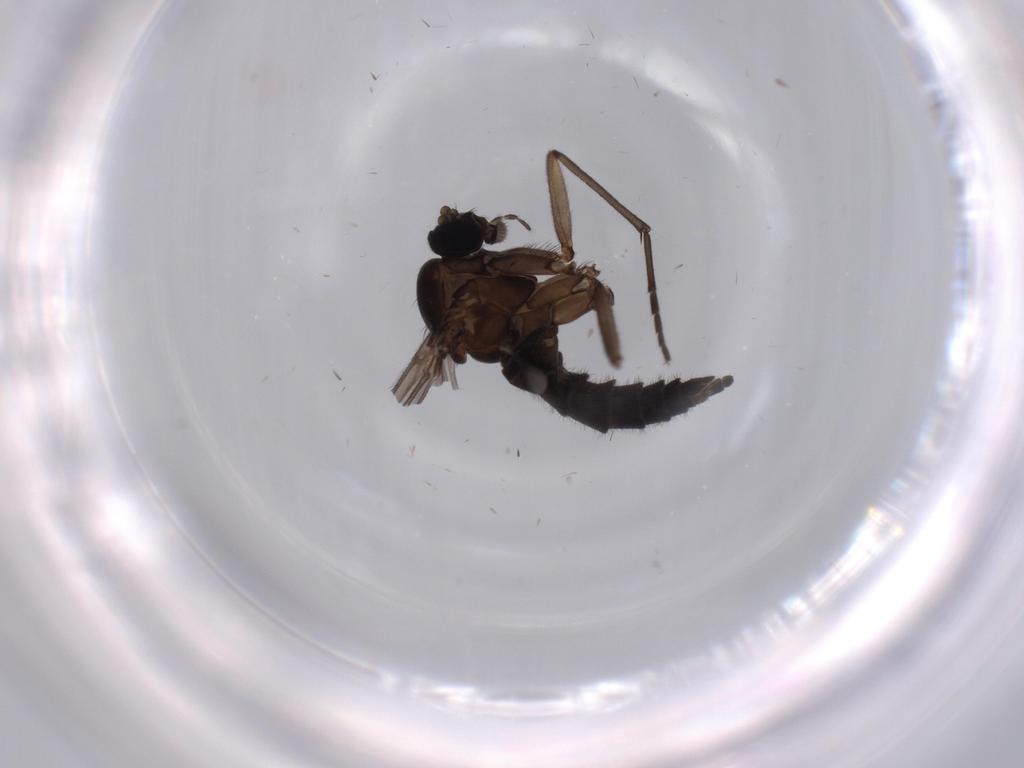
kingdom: Animalia
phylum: Arthropoda
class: Insecta
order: Diptera
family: Sciaridae
